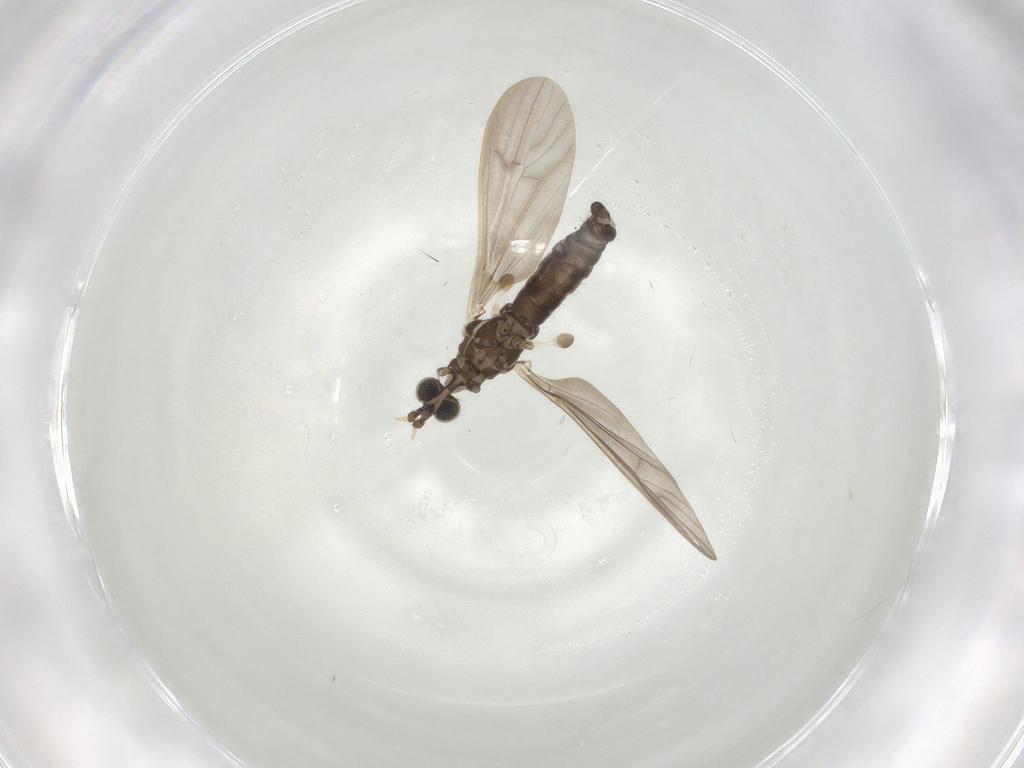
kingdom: Animalia
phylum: Arthropoda
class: Insecta
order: Diptera
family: Limoniidae
